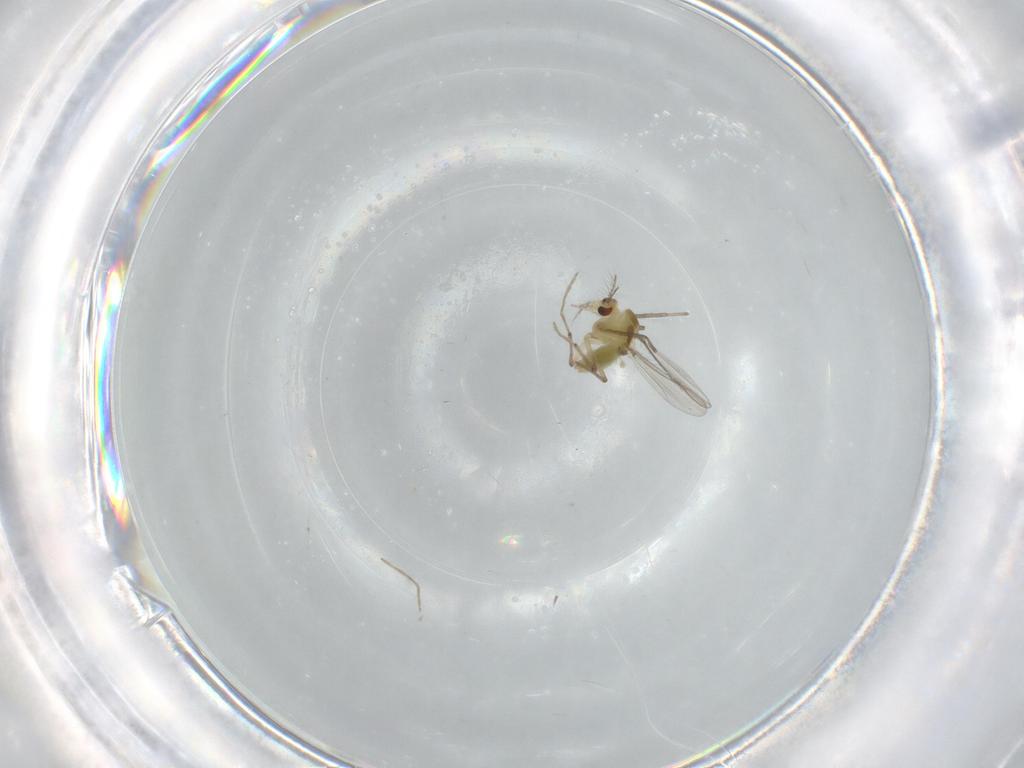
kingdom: Animalia
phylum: Arthropoda
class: Insecta
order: Diptera
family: Chironomidae
